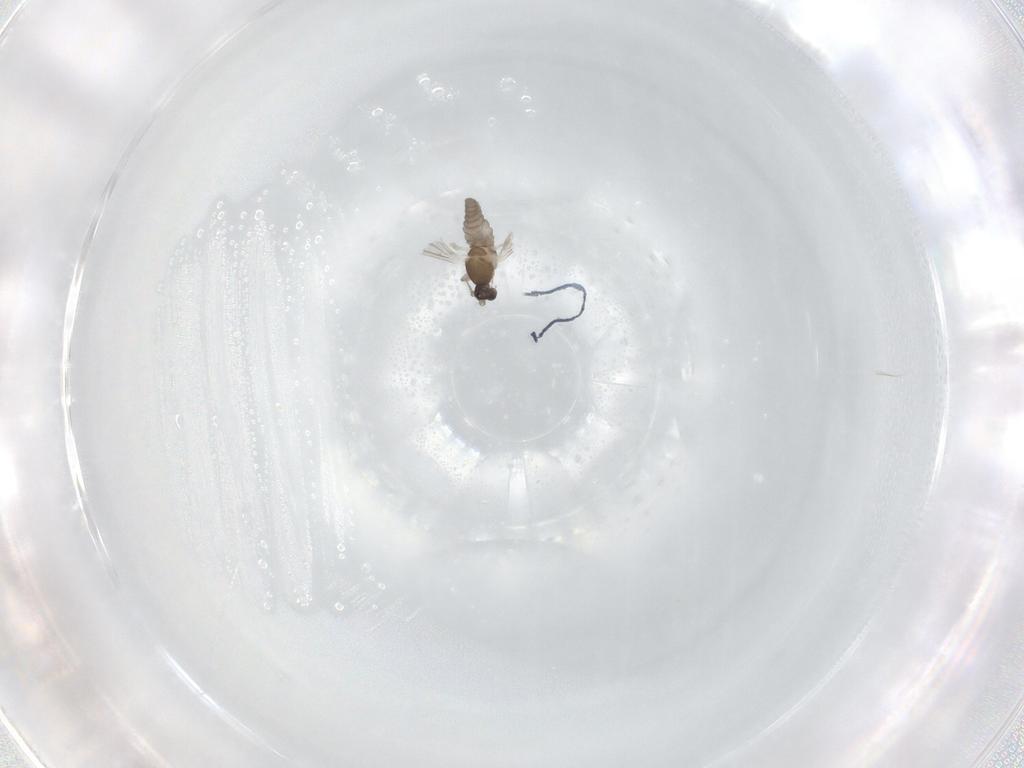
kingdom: Animalia
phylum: Arthropoda
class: Insecta
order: Diptera
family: Cecidomyiidae
